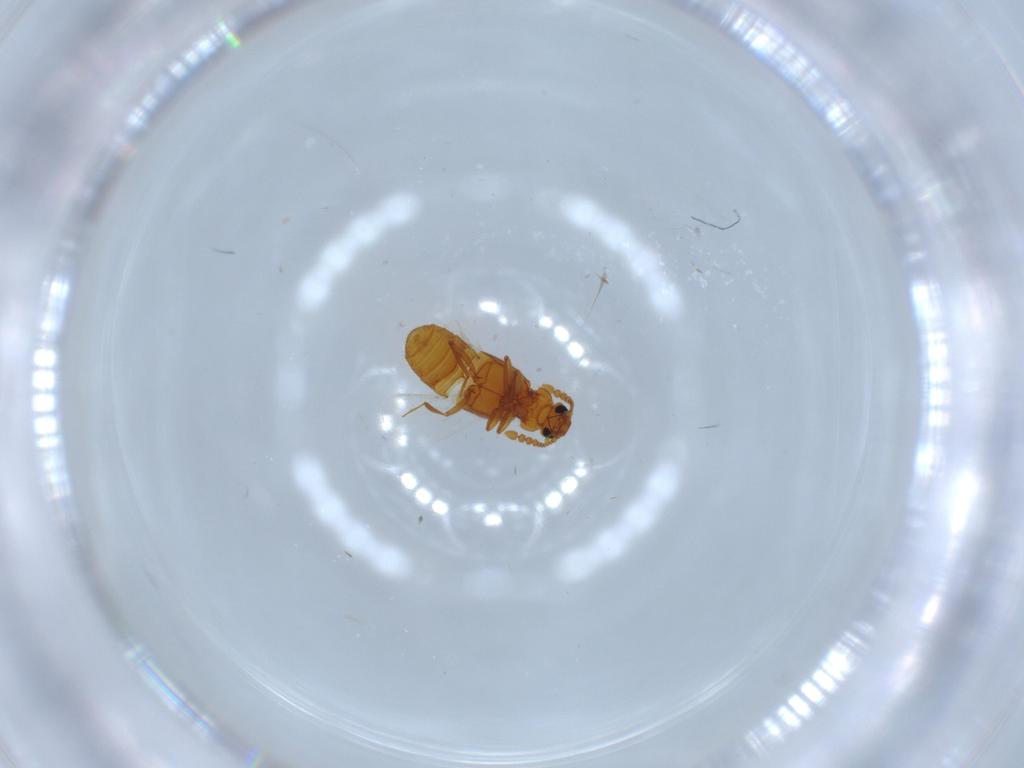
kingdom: Animalia
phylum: Arthropoda
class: Insecta
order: Coleoptera
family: Staphylinidae
